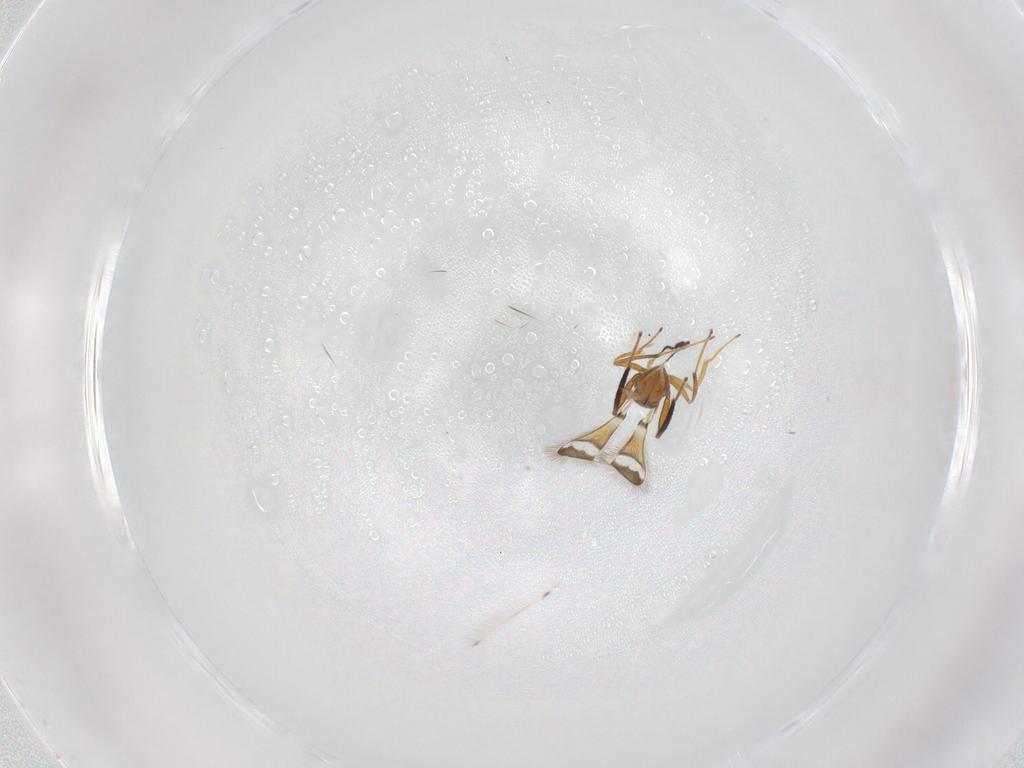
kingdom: Animalia
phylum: Arthropoda
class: Insecta
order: Hymenoptera
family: Mymaridae
